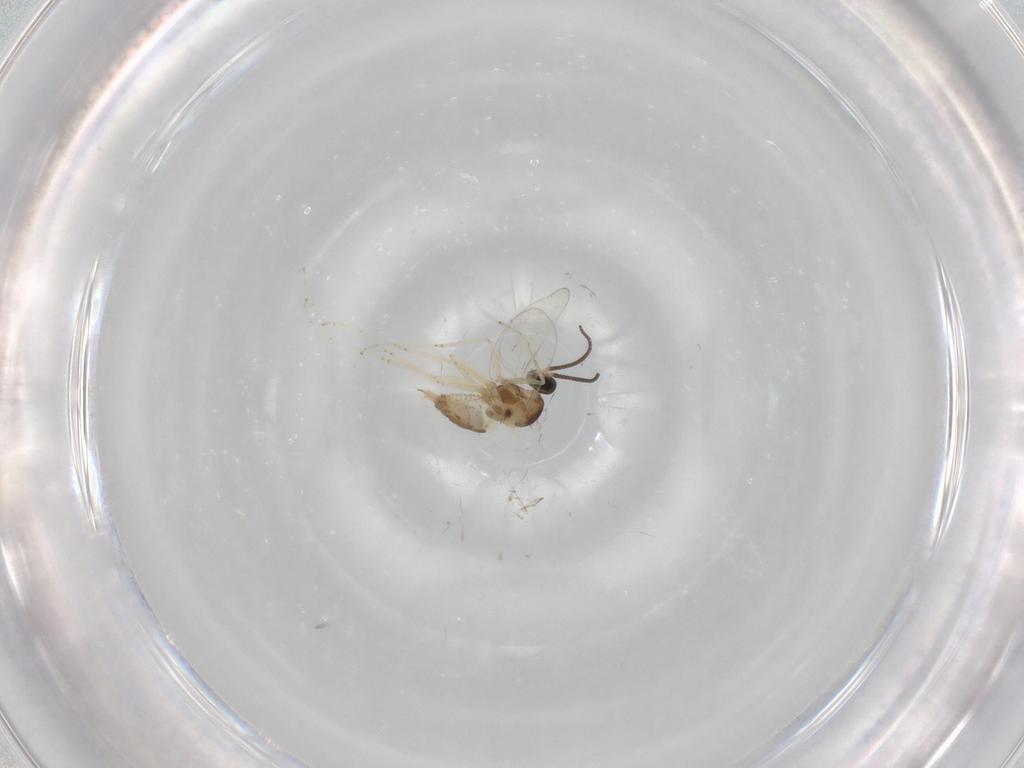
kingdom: Animalia
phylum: Arthropoda
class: Insecta
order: Diptera
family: Cecidomyiidae
